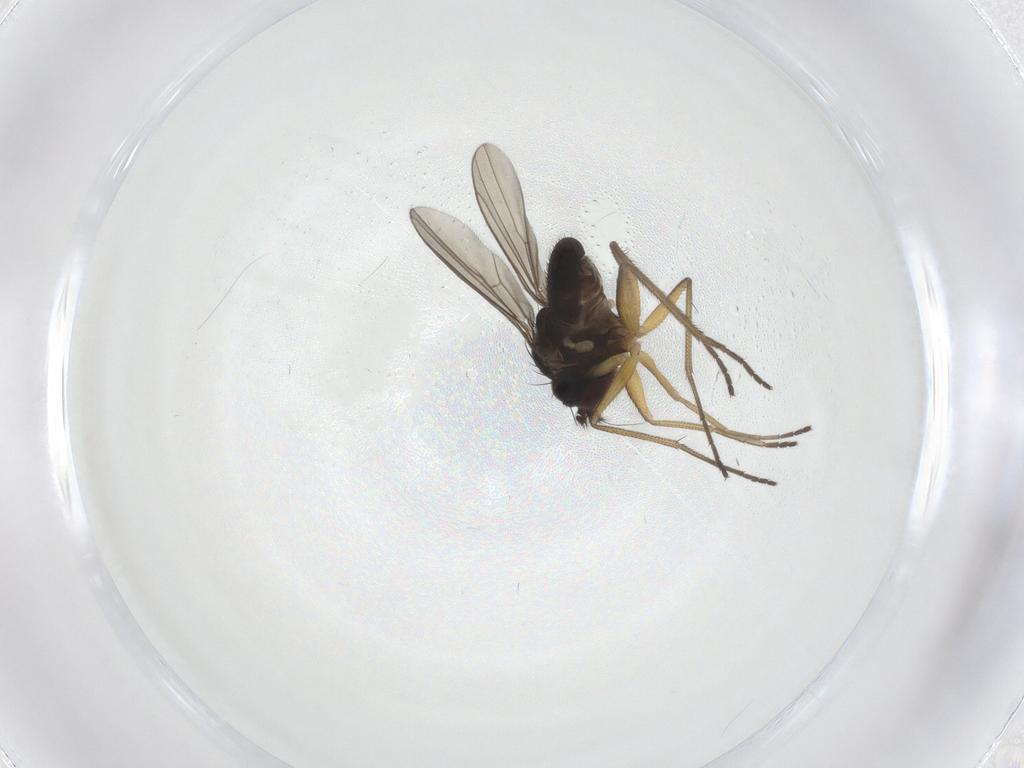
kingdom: Animalia
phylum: Arthropoda
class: Insecta
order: Diptera
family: Dolichopodidae
